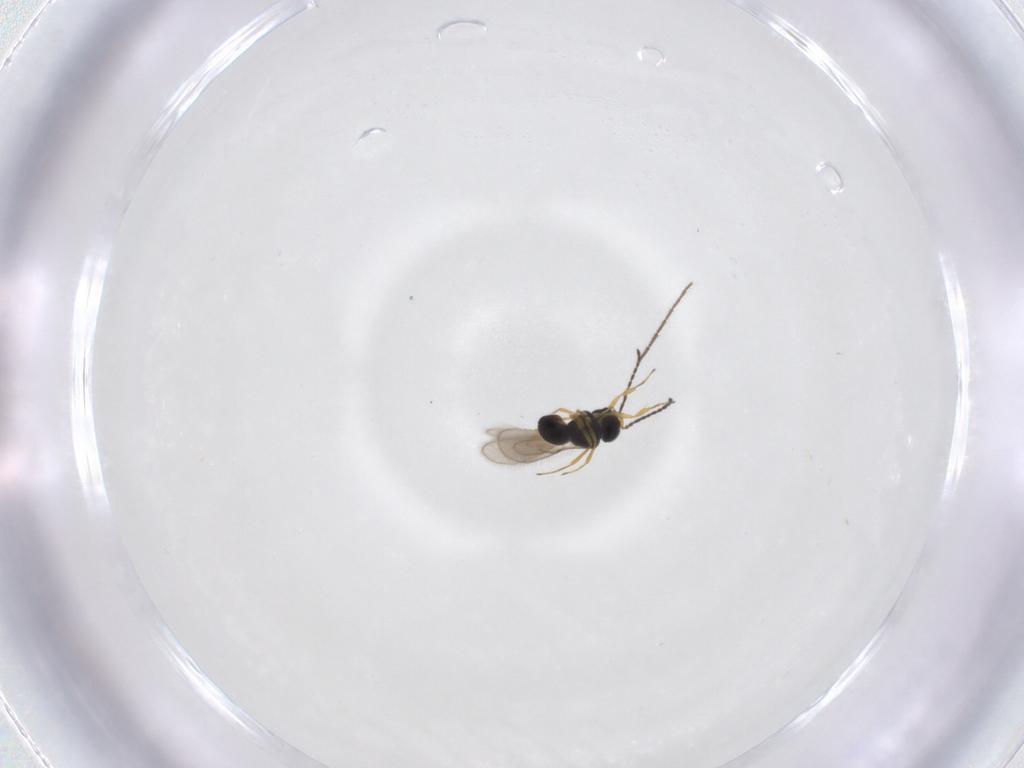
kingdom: Animalia
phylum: Arthropoda
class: Insecta
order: Hymenoptera
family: Scelionidae
